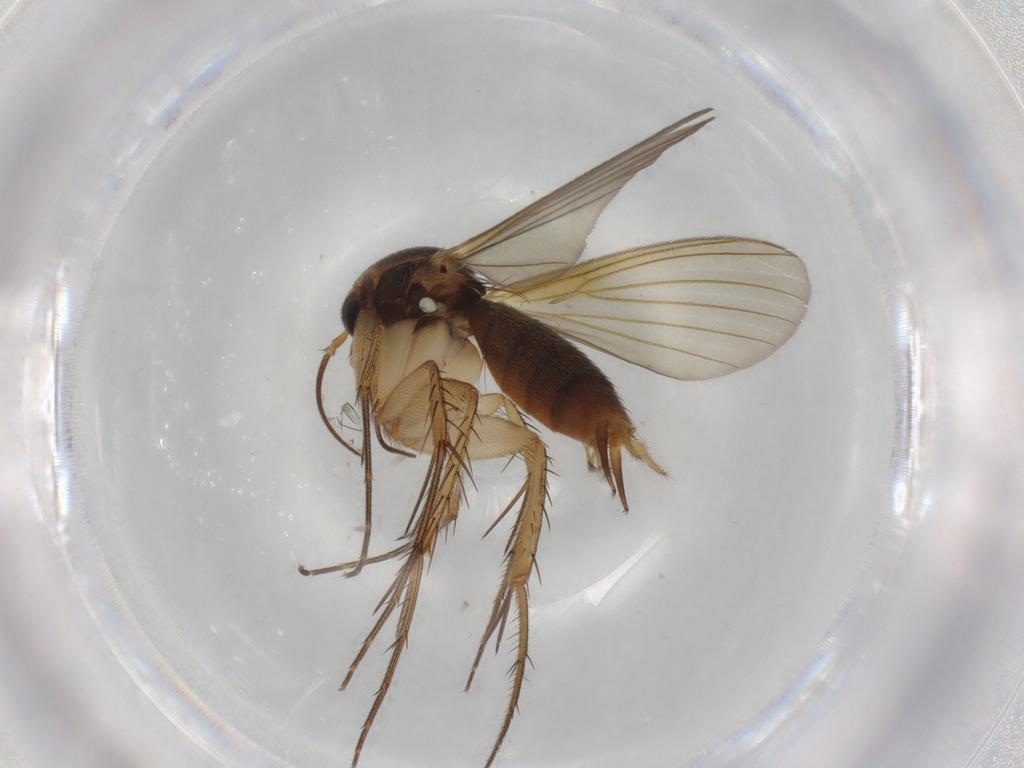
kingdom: Animalia
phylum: Arthropoda
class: Insecta
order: Diptera
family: Mycetophilidae
